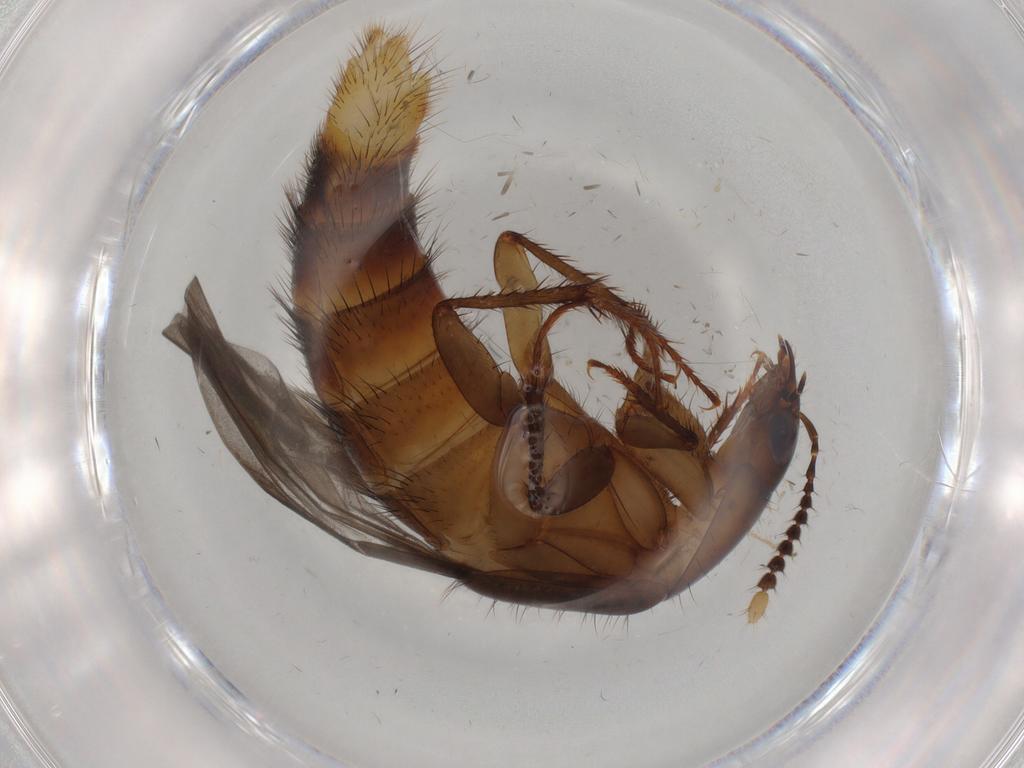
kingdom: Animalia
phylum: Arthropoda
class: Insecta
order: Coleoptera
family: Staphylinidae
